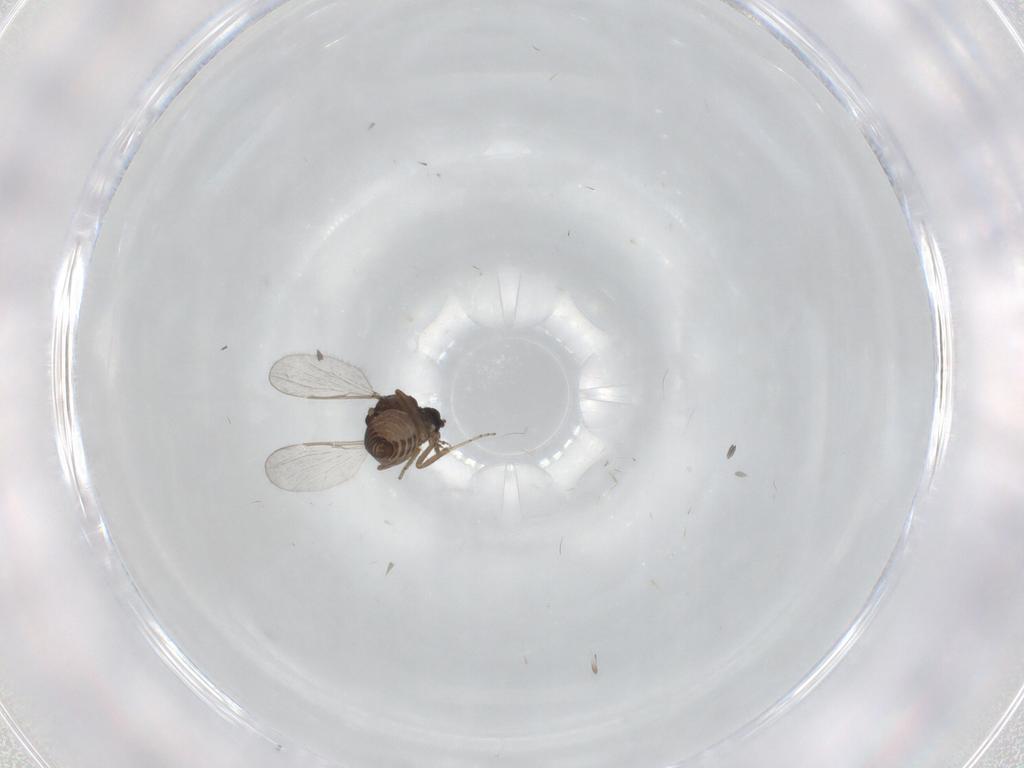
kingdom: Animalia
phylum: Arthropoda
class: Insecta
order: Diptera
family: Ceratopogonidae
